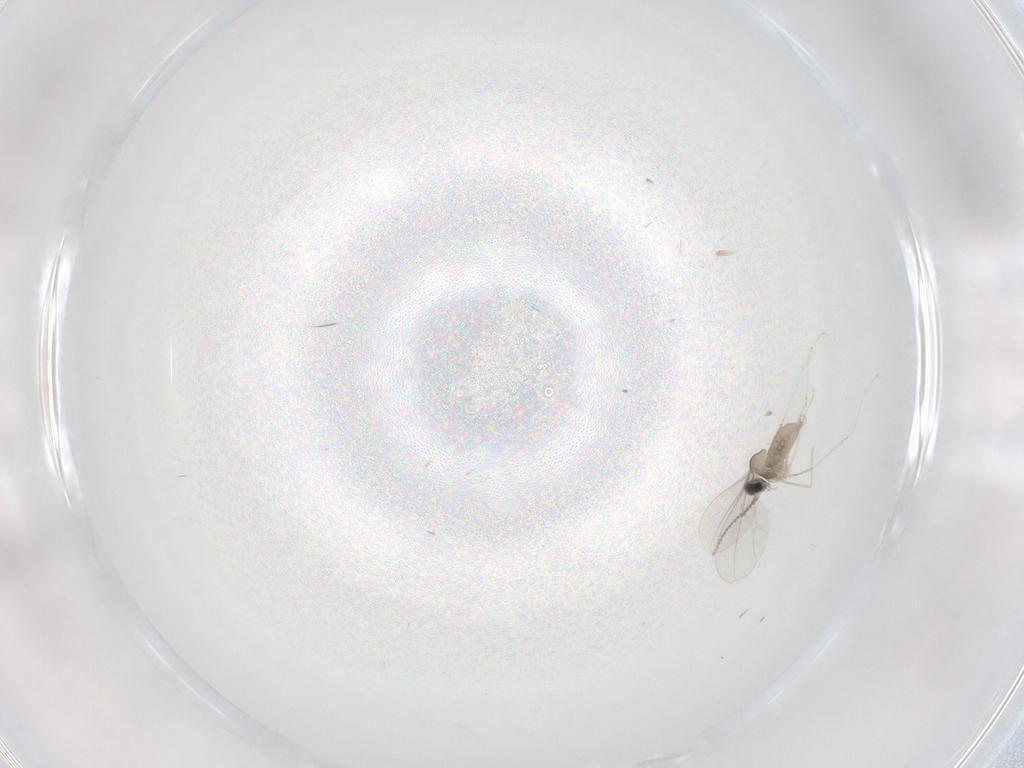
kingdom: Animalia
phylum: Arthropoda
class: Insecta
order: Diptera
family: Cecidomyiidae
